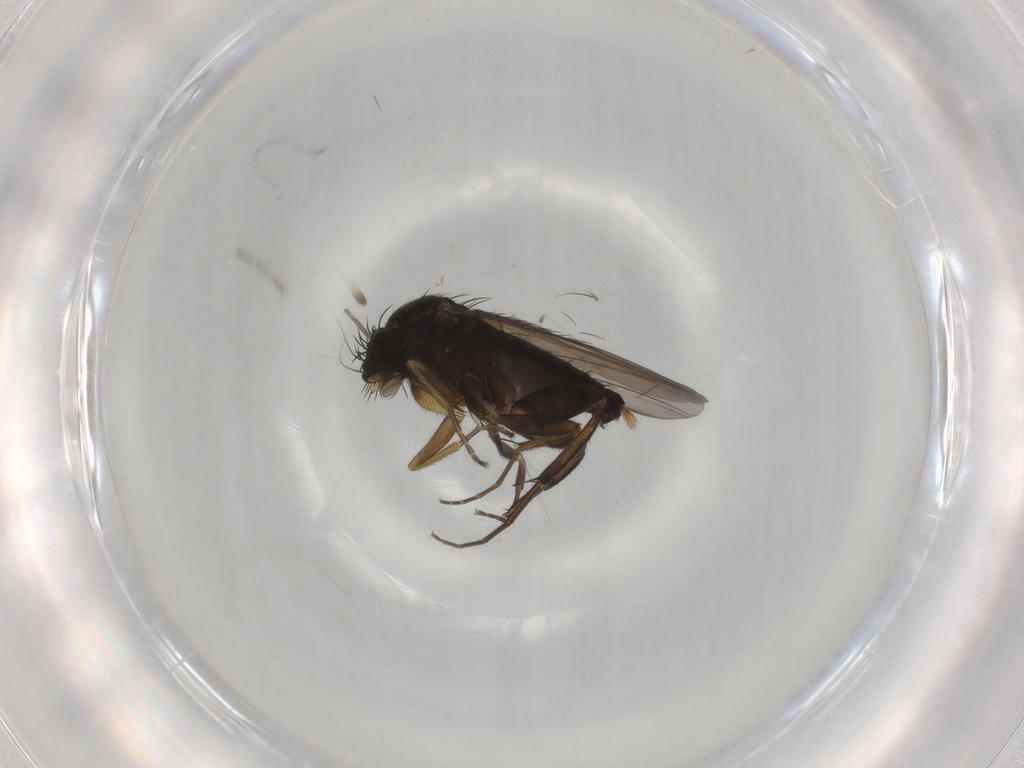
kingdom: Animalia
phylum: Arthropoda
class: Insecta
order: Diptera
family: Phoridae
